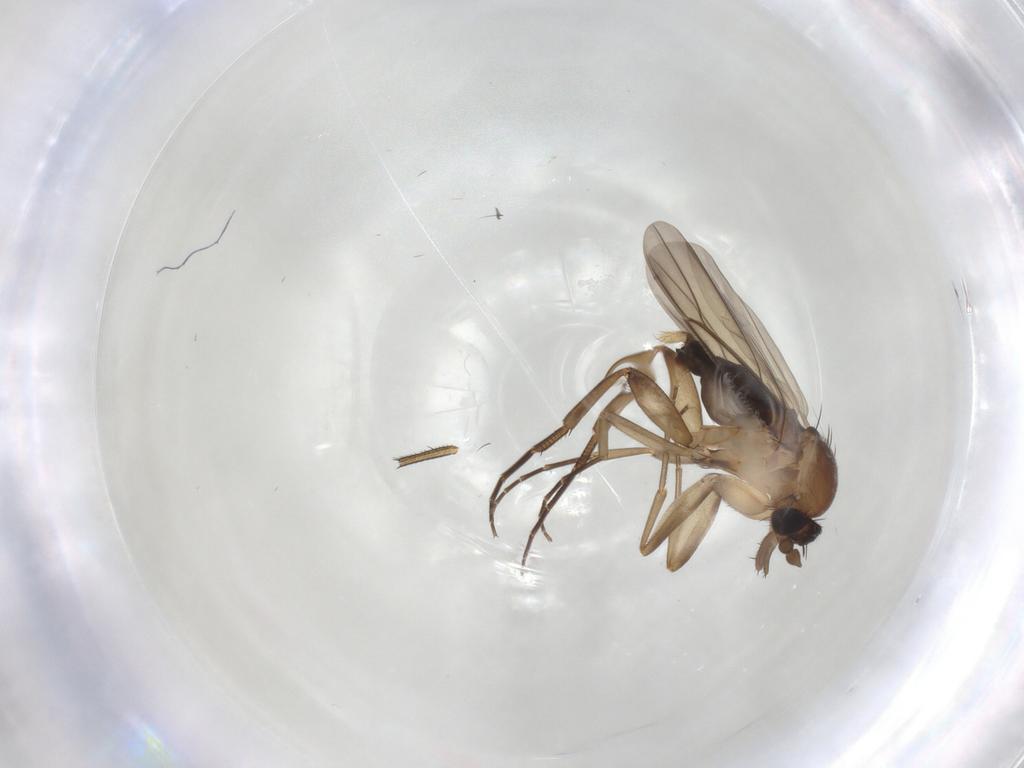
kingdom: Animalia
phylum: Arthropoda
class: Insecta
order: Diptera
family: Phoridae
